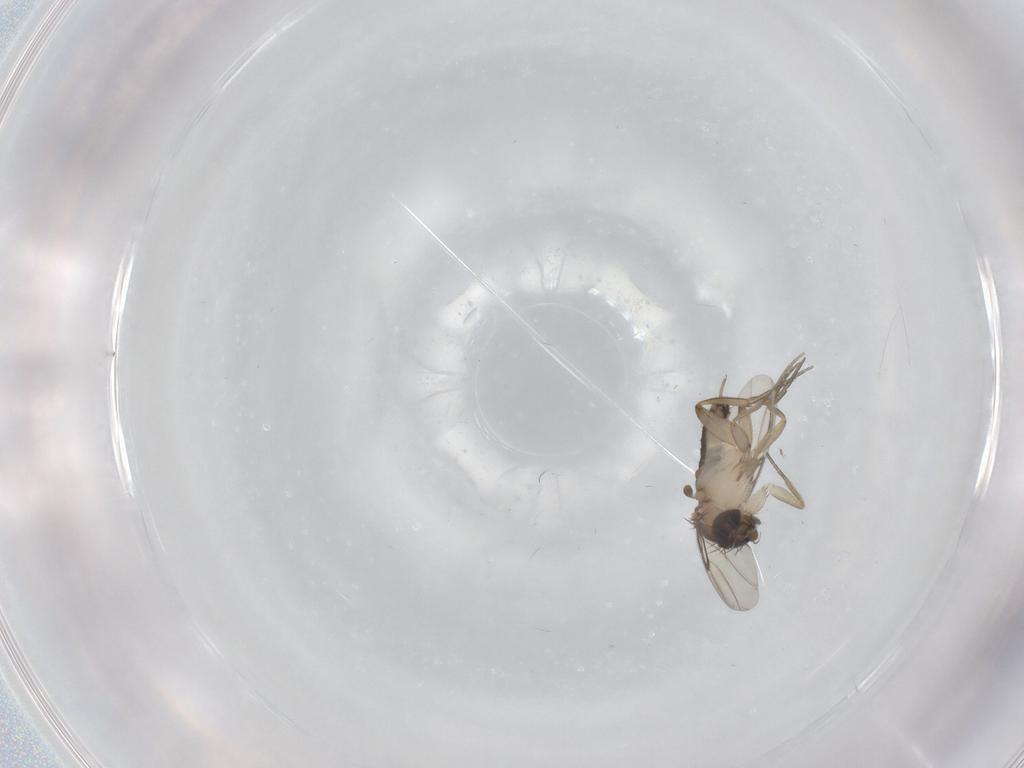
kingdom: Animalia
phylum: Arthropoda
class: Insecta
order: Diptera
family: Phoridae
